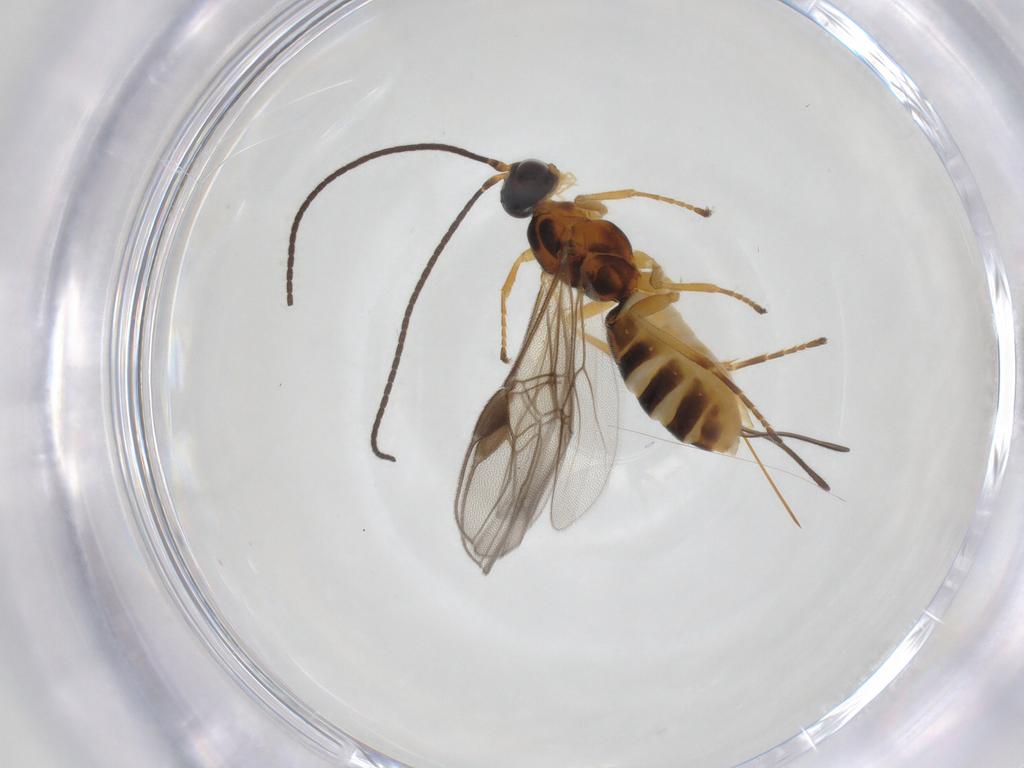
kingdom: Animalia
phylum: Arthropoda
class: Insecta
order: Hymenoptera
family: Braconidae
